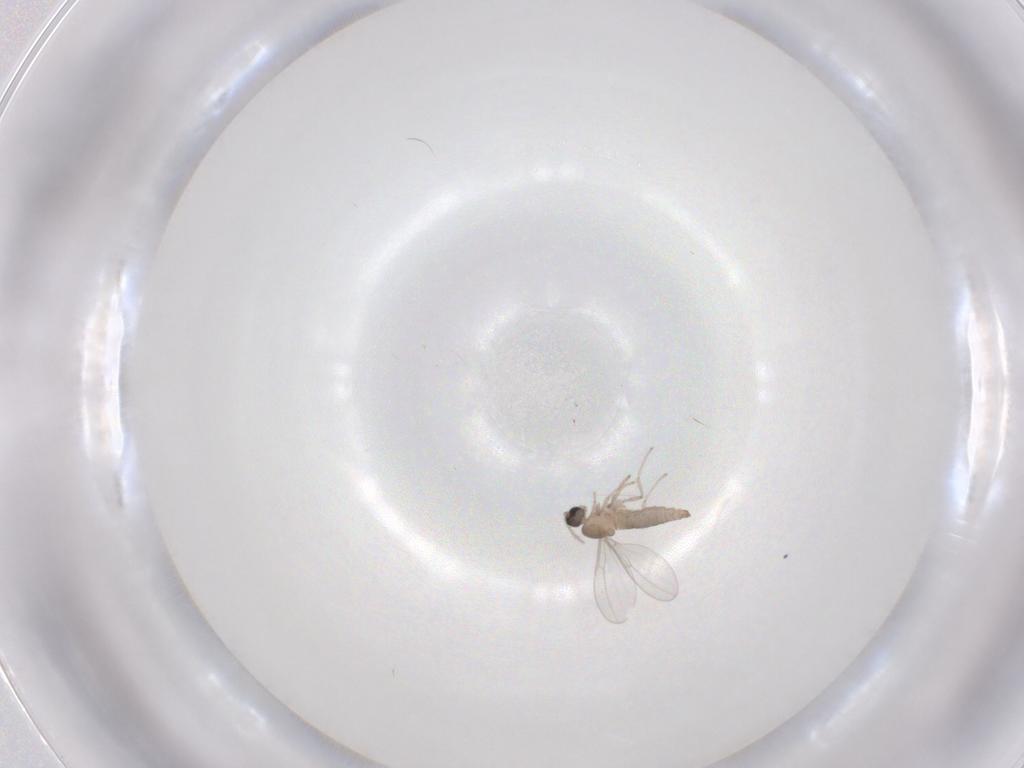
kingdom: Animalia
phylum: Arthropoda
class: Insecta
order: Diptera
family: Cecidomyiidae
